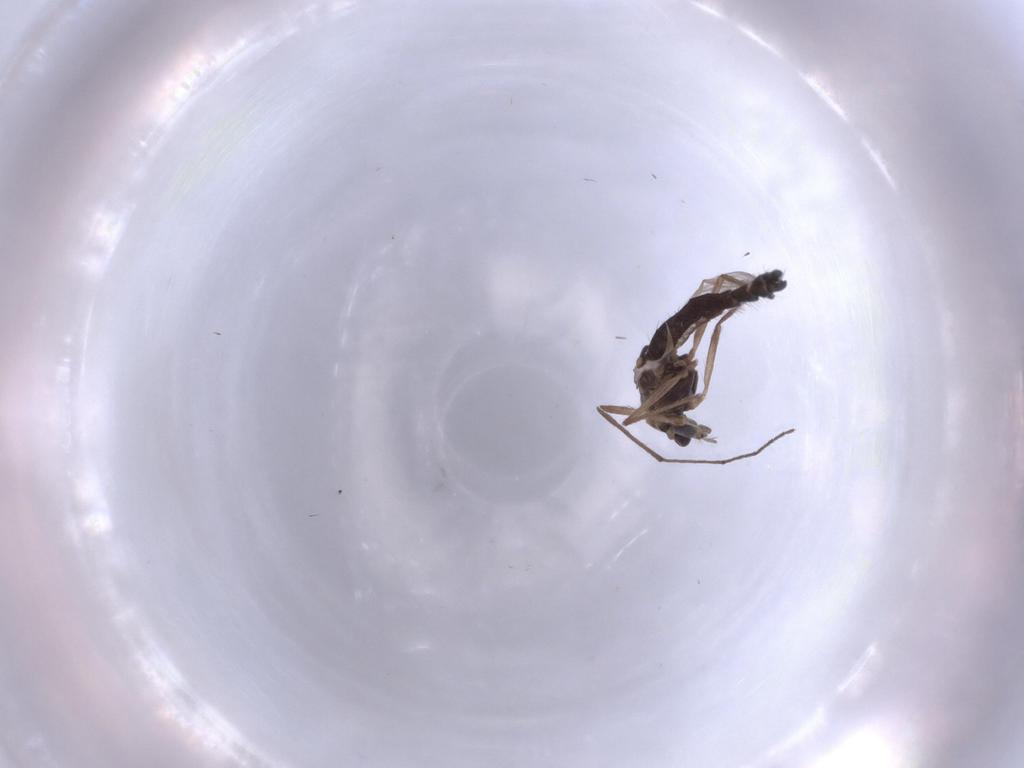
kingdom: Animalia
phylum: Arthropoda
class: Insecta
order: Diptera
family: Chironomidae
